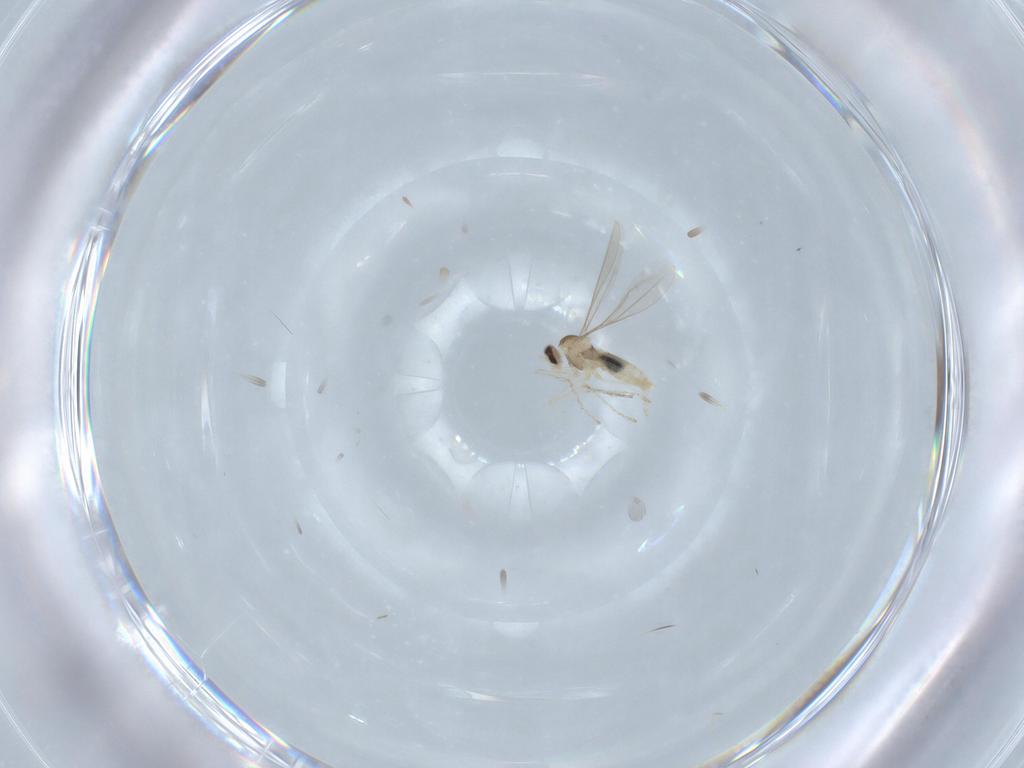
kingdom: Animalia
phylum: Arthropoda
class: Insecta
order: Diptera
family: Cecidomyiidae
